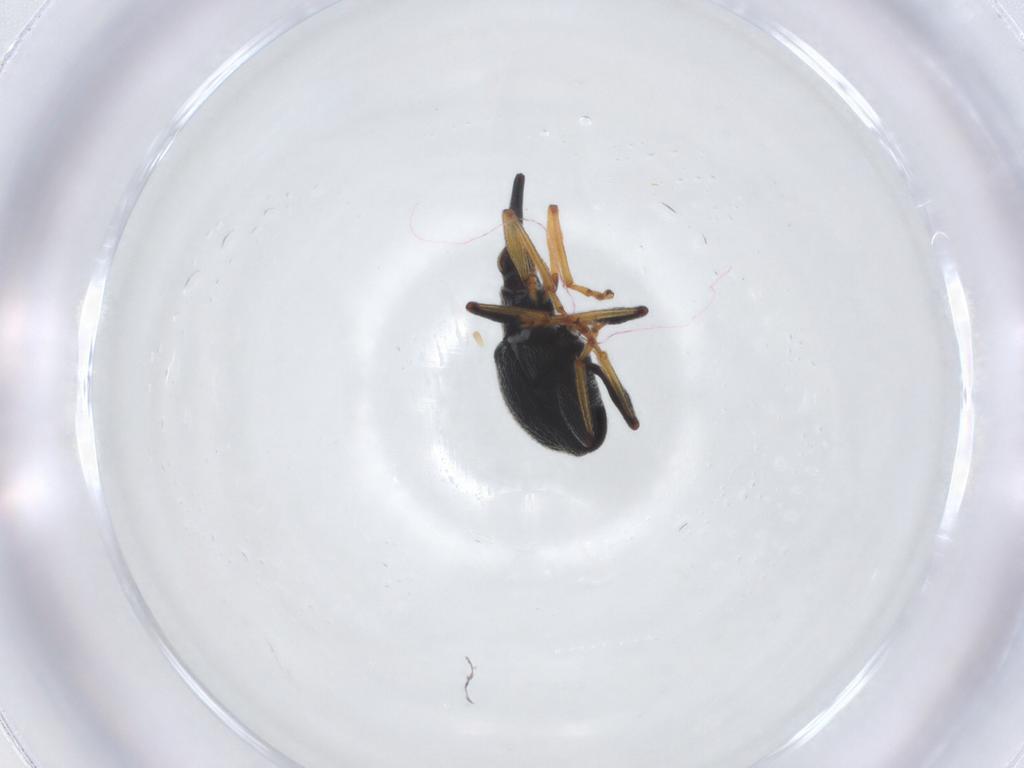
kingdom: Animalia
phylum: Arthropoda
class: Insecta
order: Coleoptera
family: Brentidae
